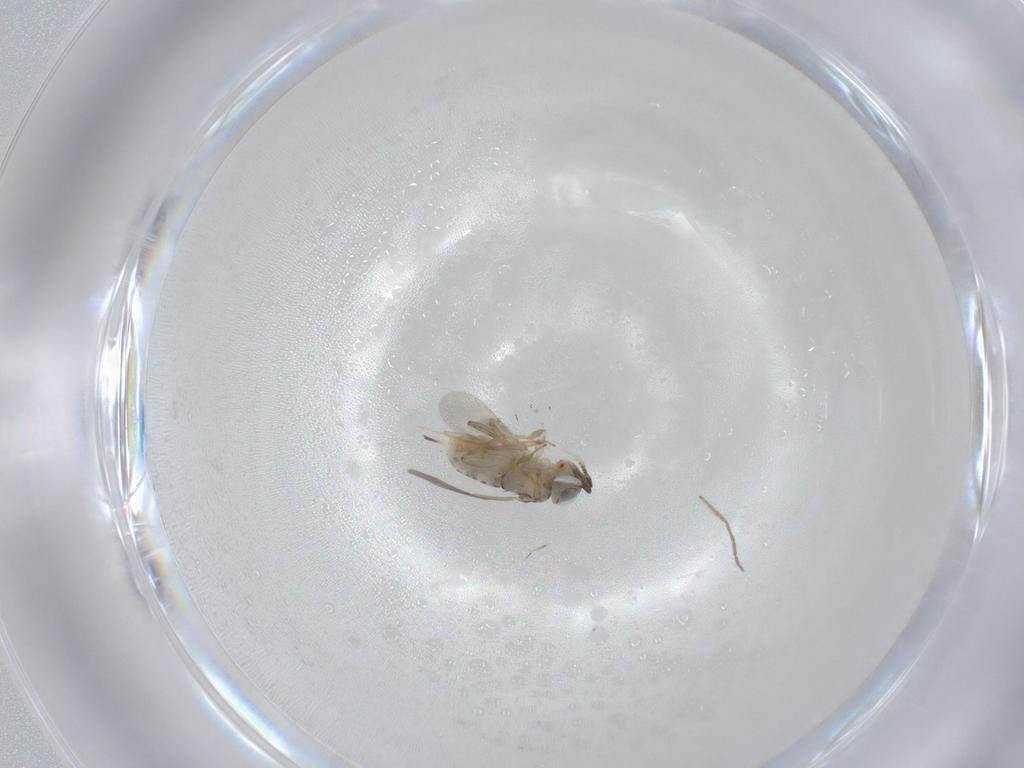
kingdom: Animalia
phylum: Arthropoda
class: Insecta
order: Hymenoptera
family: Encyrtidae
